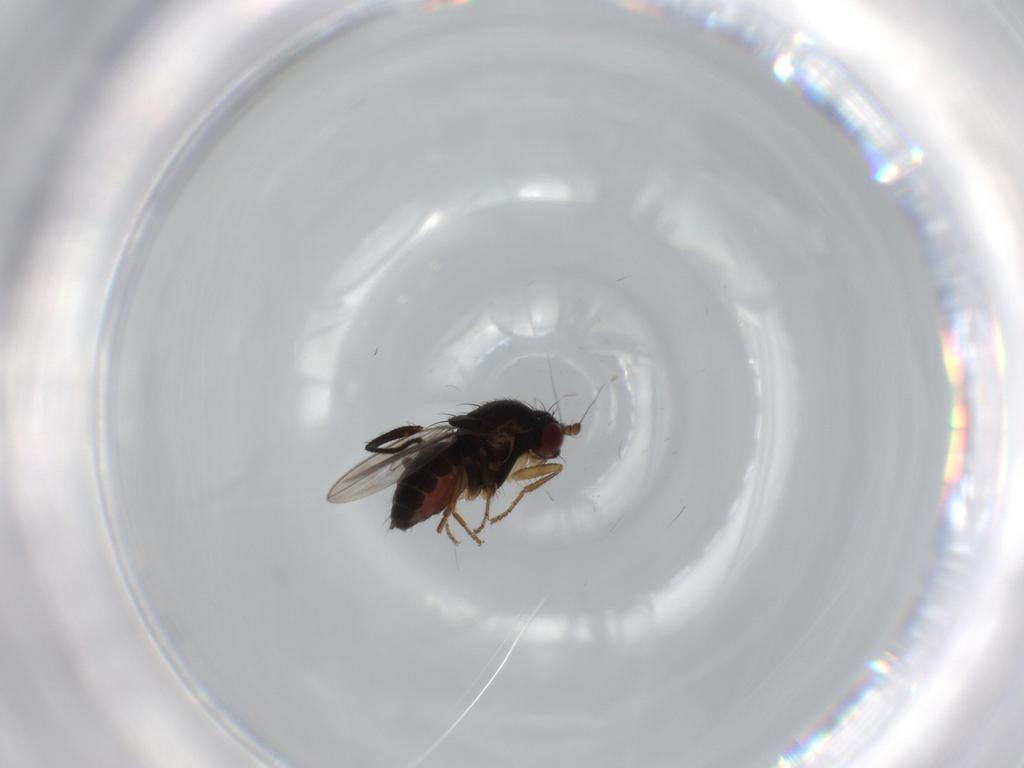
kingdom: Animalia
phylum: Arthropoda
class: Insecta
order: Diptera
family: Sphaeroceridae
